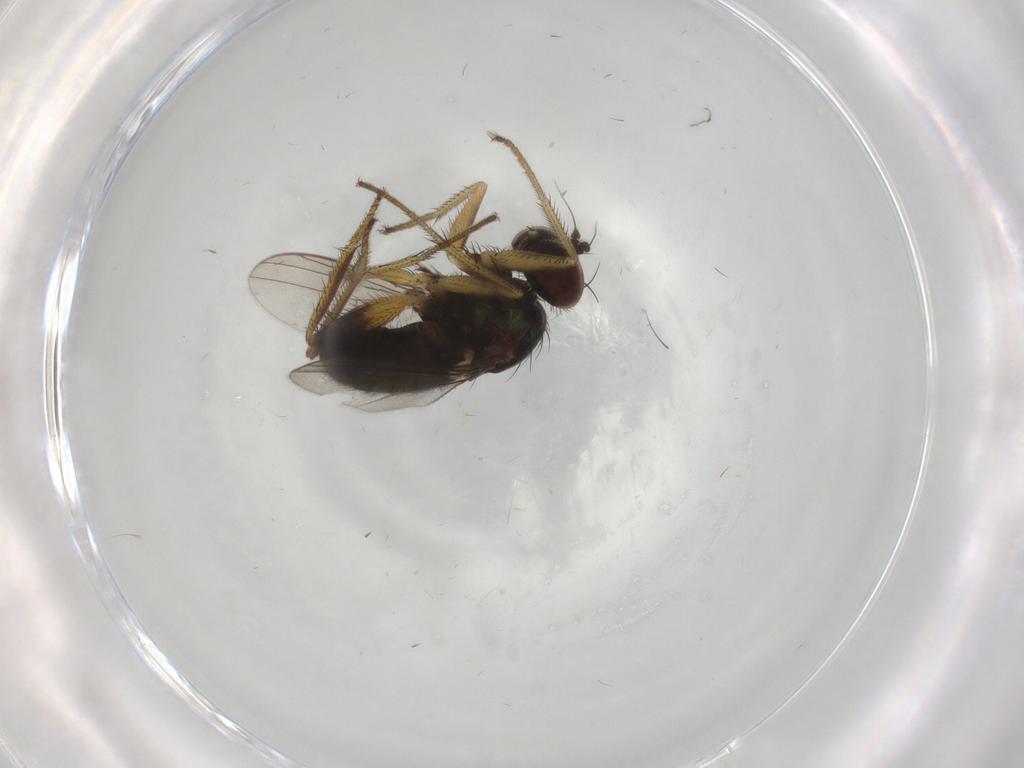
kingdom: Animalia
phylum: Arthropoda
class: Insecta
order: Diptera
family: Dolichopodidae
